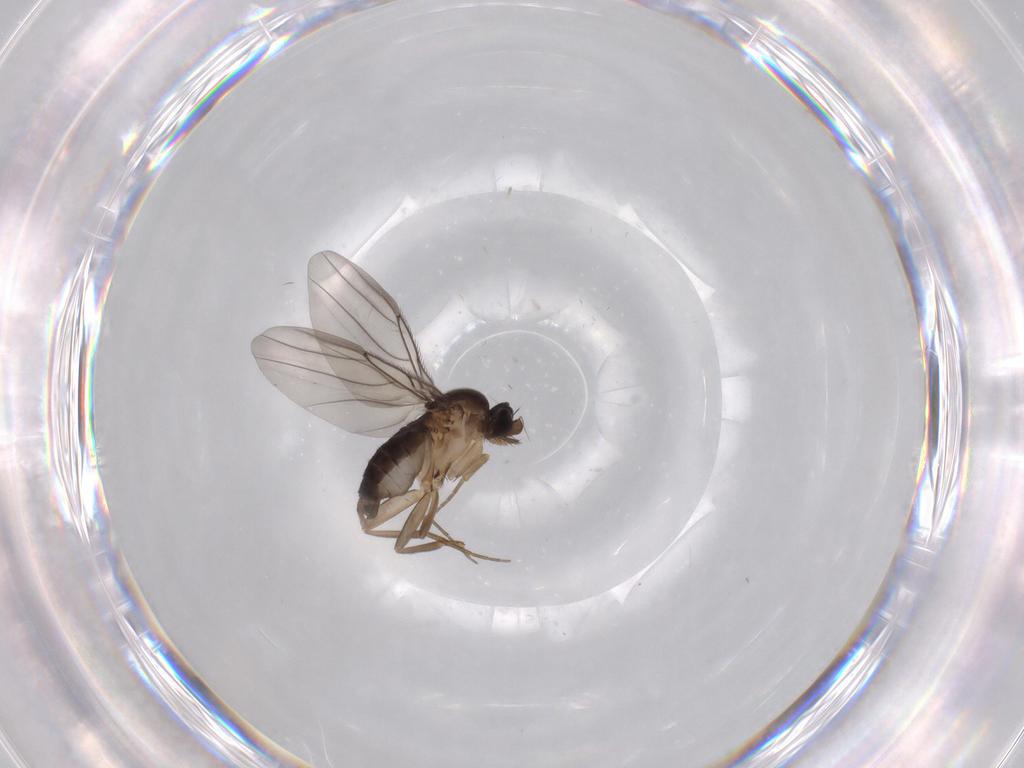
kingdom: Animalia
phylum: Arthropoda
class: Insecta
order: Diptera
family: Phoridae
